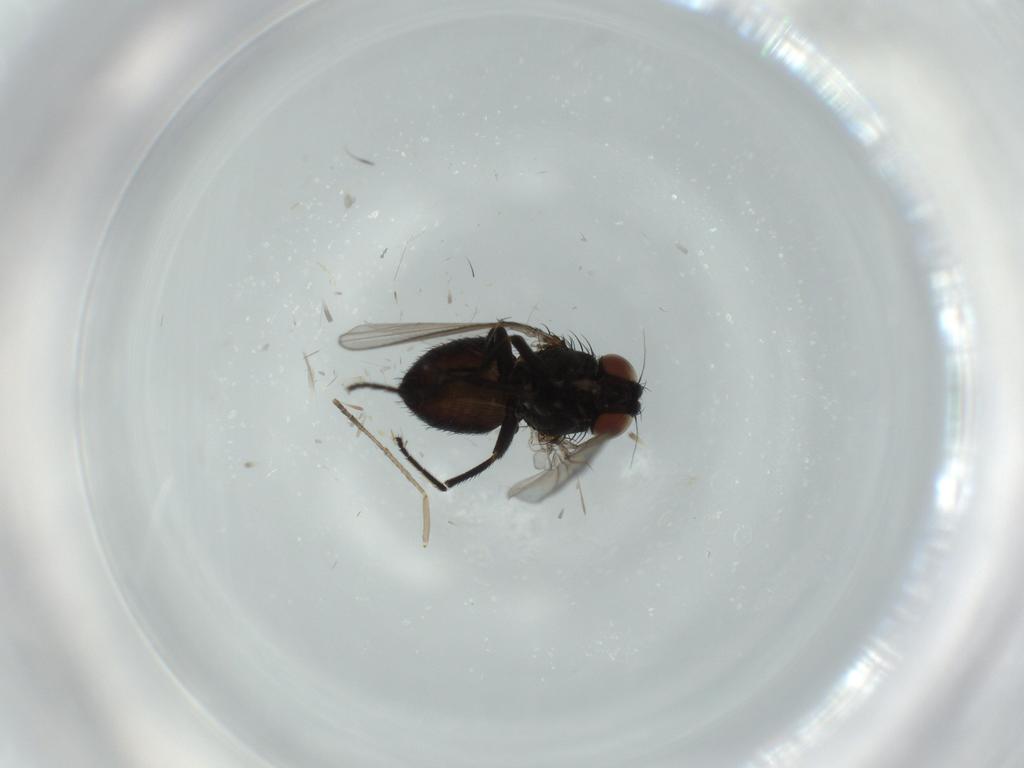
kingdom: Animalia
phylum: Arthropoda
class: Insecta
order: Diptera
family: Milichiidae
